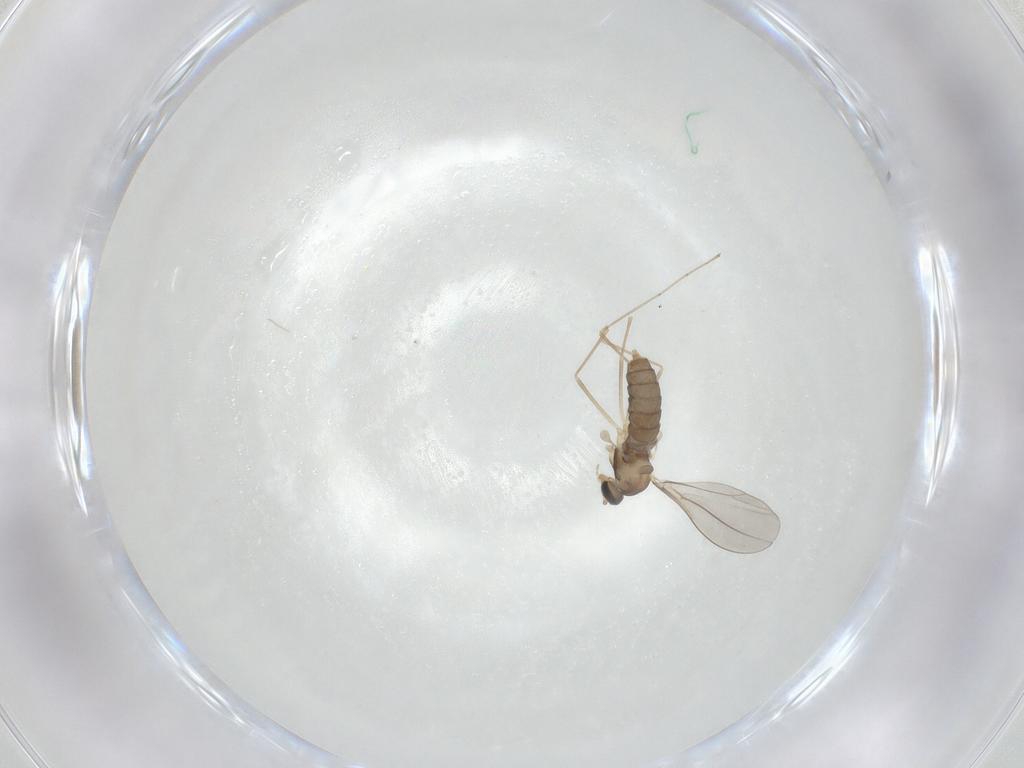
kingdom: Animalia
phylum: Arthropoda
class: Insecta
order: Diptera
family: Cecidomyiidae
